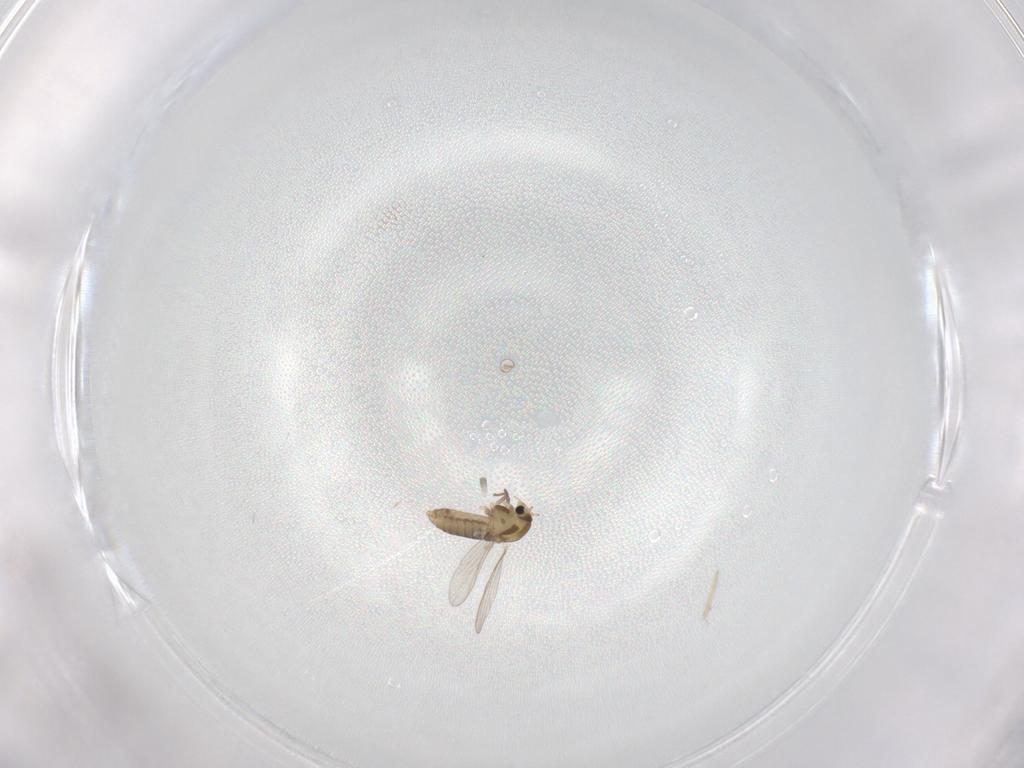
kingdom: Animalia
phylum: Arthropoda
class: Insecta
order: Diptera
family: Chironomidae
